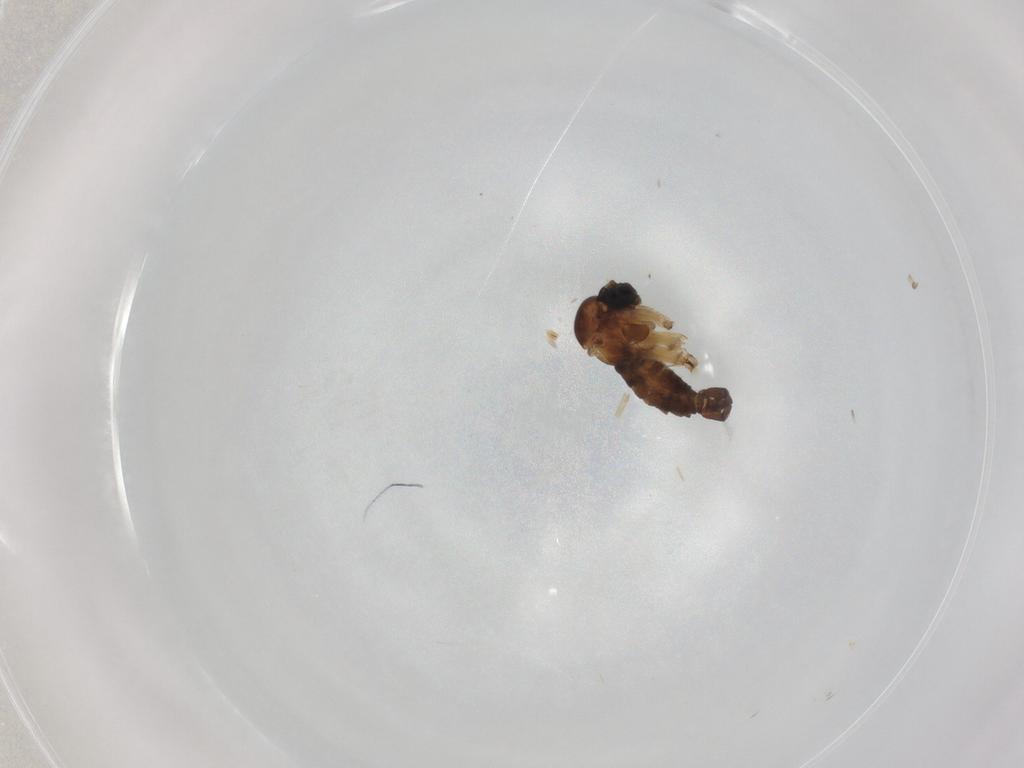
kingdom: Animalia
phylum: Arthropoda
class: Insecta
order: Diptera
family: Sciaridae
